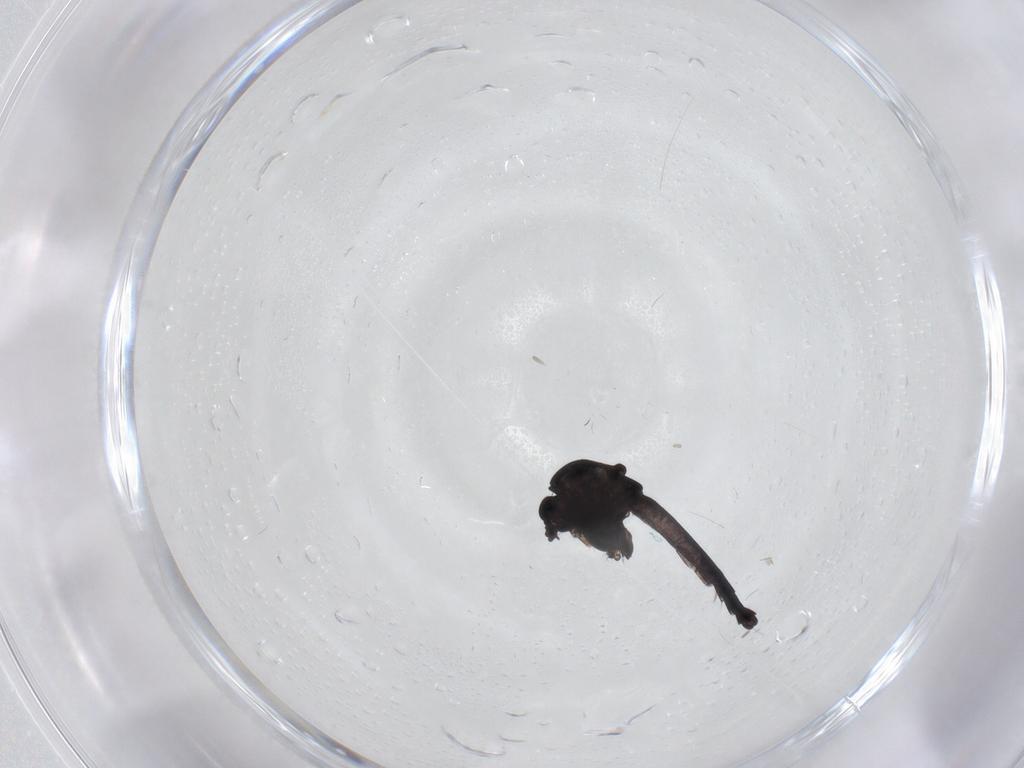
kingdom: Animalia
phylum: Arthropoda
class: Insecta
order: Diptera
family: Chironomidae
